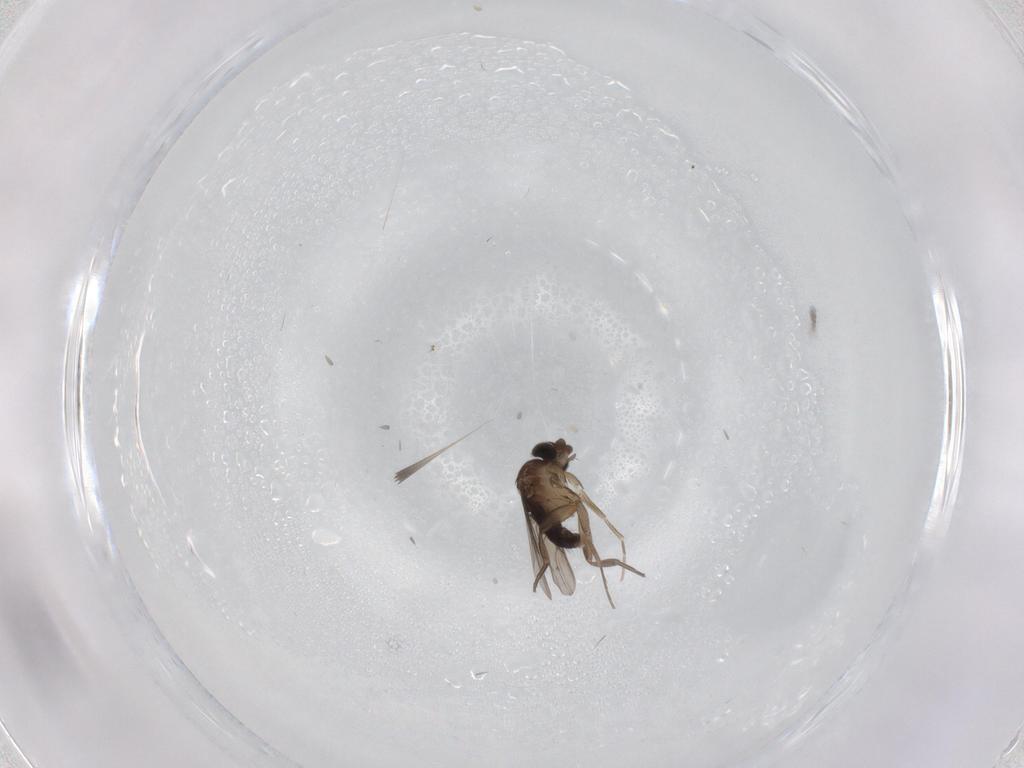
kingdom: Animalia
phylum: Arthropoda
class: Insecta
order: Diptera
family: Phoridae
